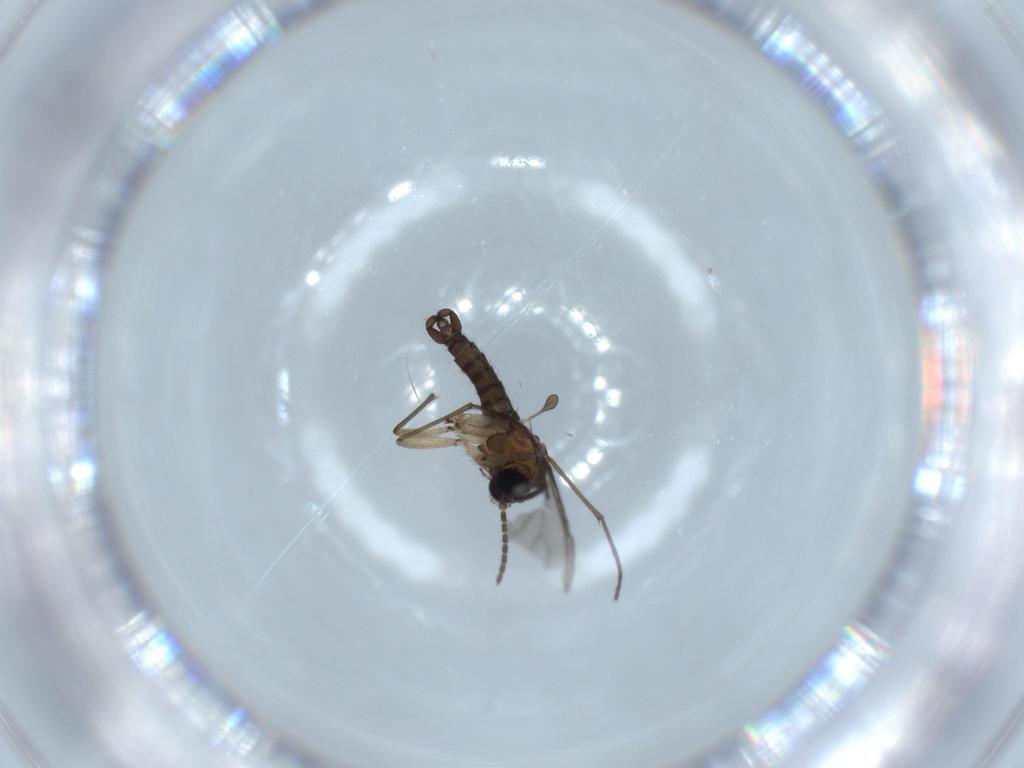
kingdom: Animalia
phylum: Arthropoda
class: Insecta
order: Diptera
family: Sciaridae
